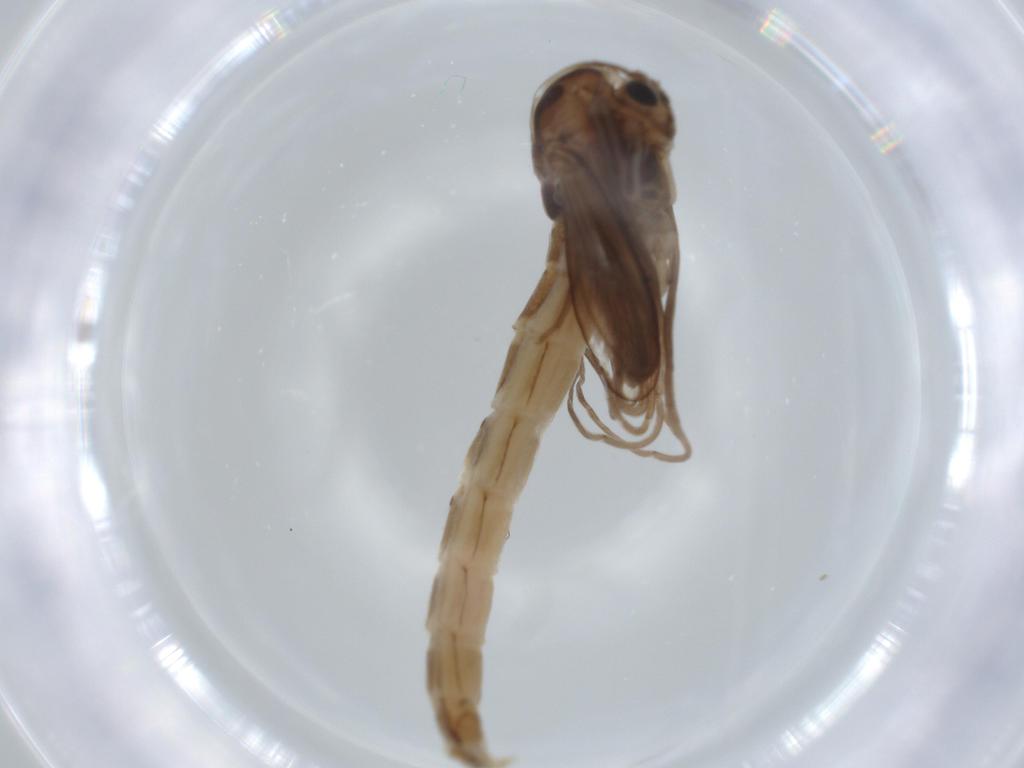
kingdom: Animalia
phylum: Arthropoda
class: Insecta
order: Diptera
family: Chironomidae
